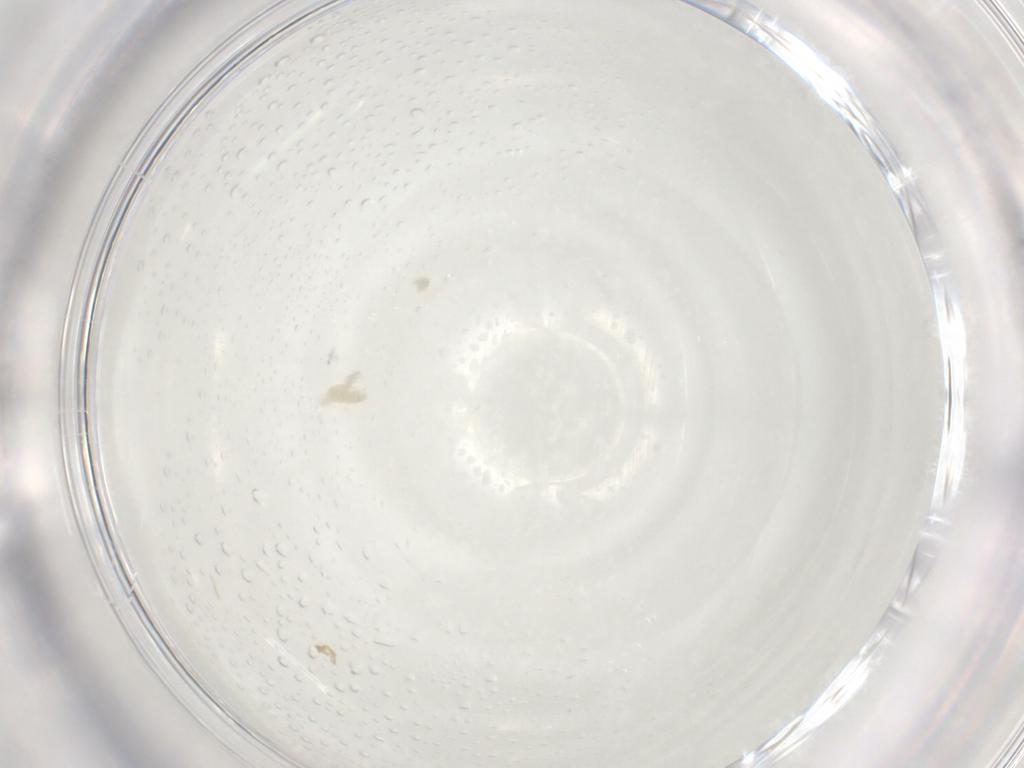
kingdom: Animalia
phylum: Arthropoda
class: Arachnida
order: Trombidiformes
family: Eupodidae
